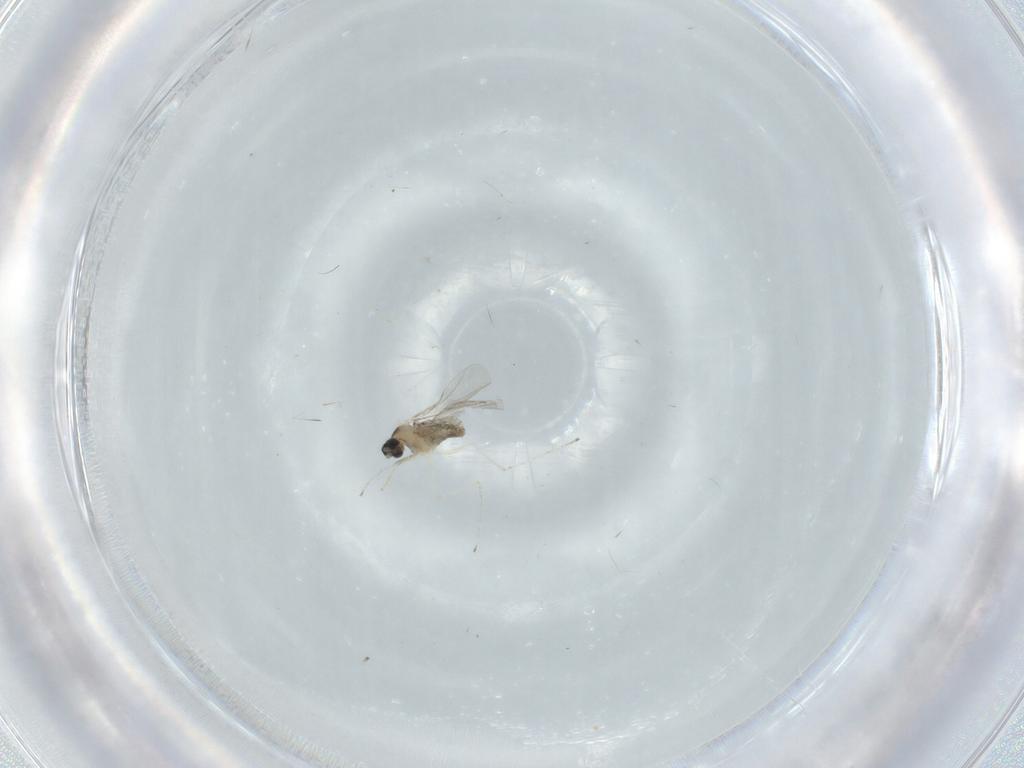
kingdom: Animalia
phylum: Arthropoda
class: Insecta
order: Diptera
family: Cecidomyiidae
